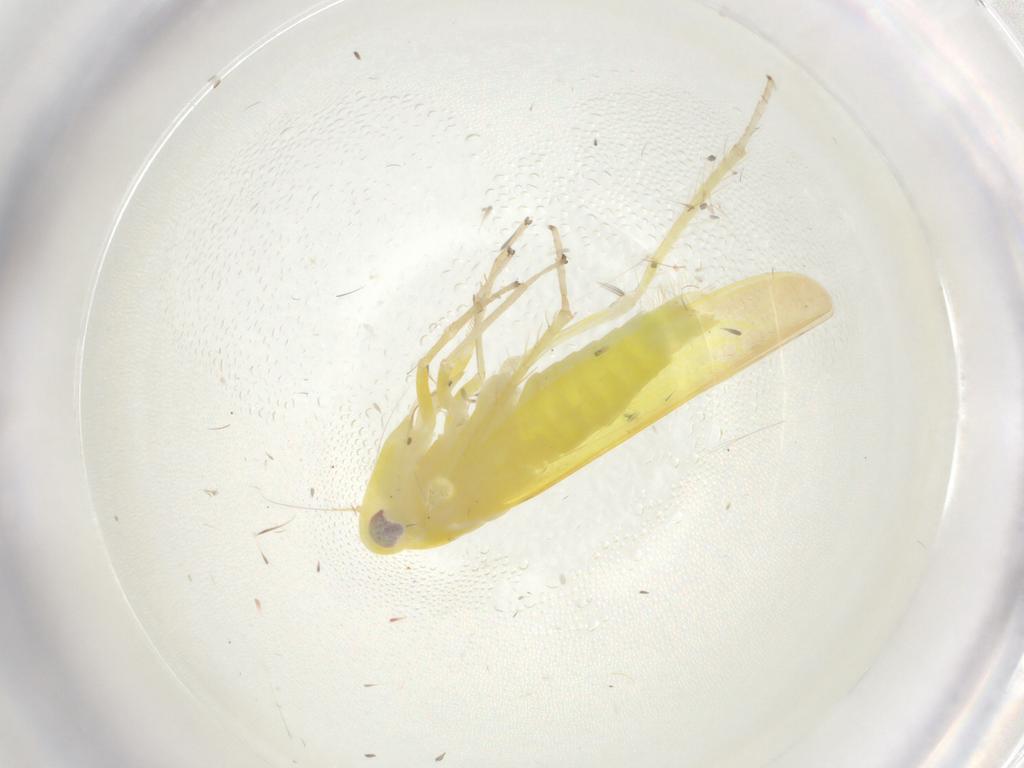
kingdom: Animalia
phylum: Arthropoda
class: Insecta
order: Hemiptera
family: Cicadellidae
